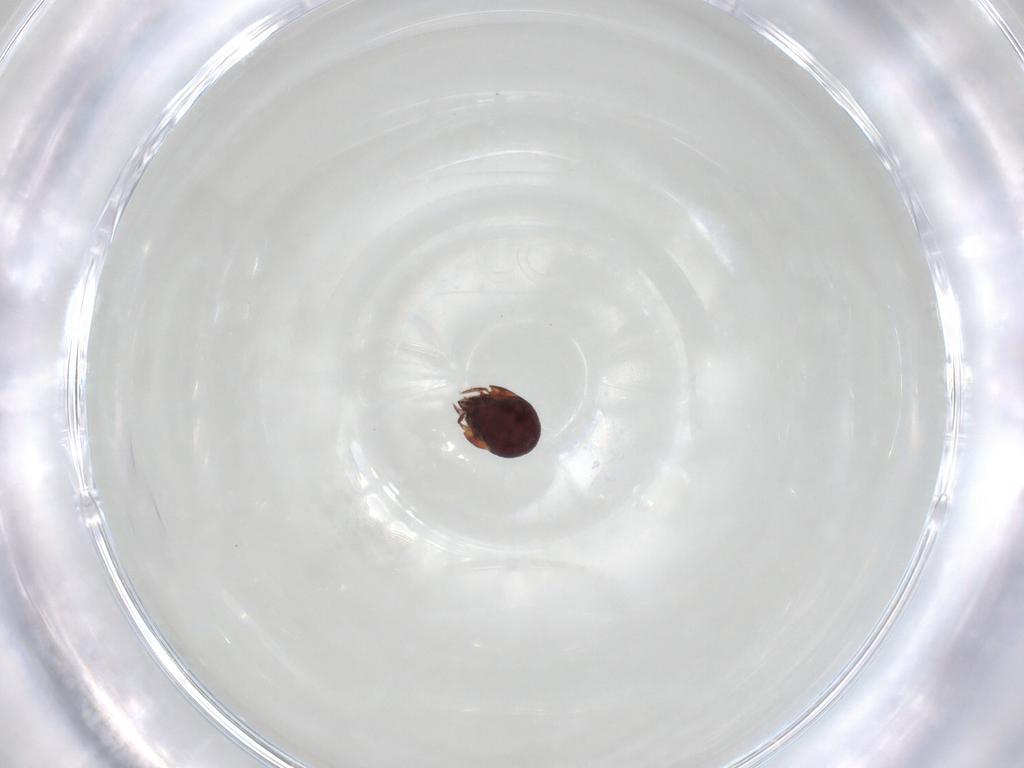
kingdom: Animalia
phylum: Arthropoda
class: Arachnida
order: Sarcoptiformes
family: Humerobatidae
